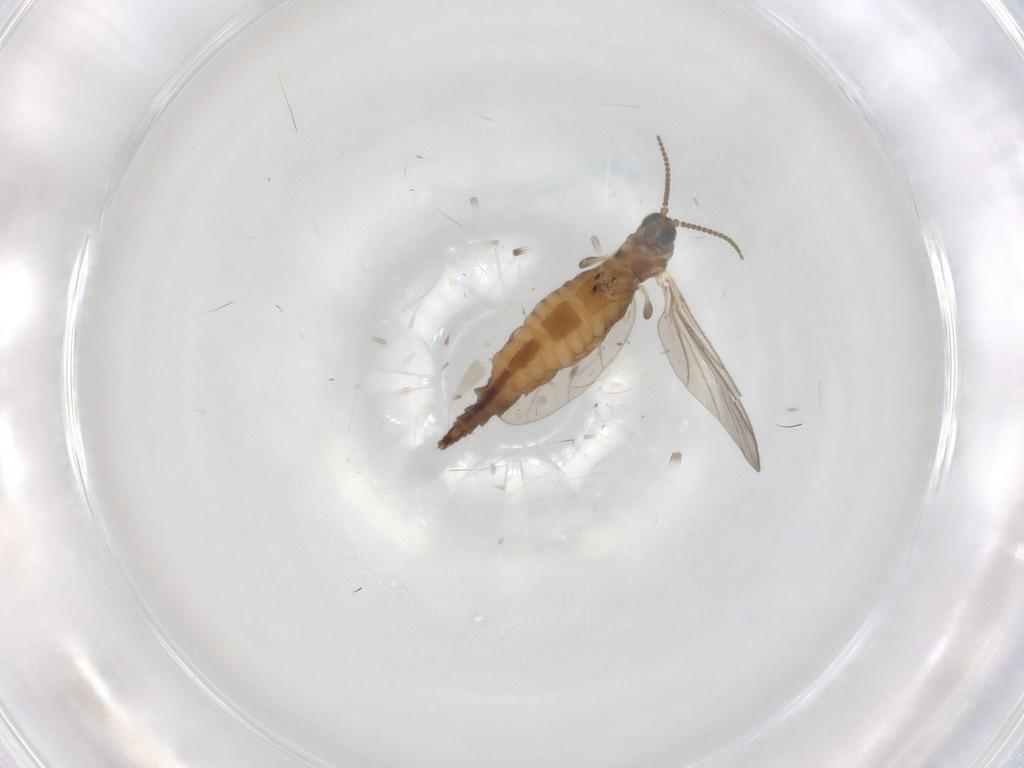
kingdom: Animalia
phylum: Arthropoda
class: Insecta
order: Diptera
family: Sciaridae
